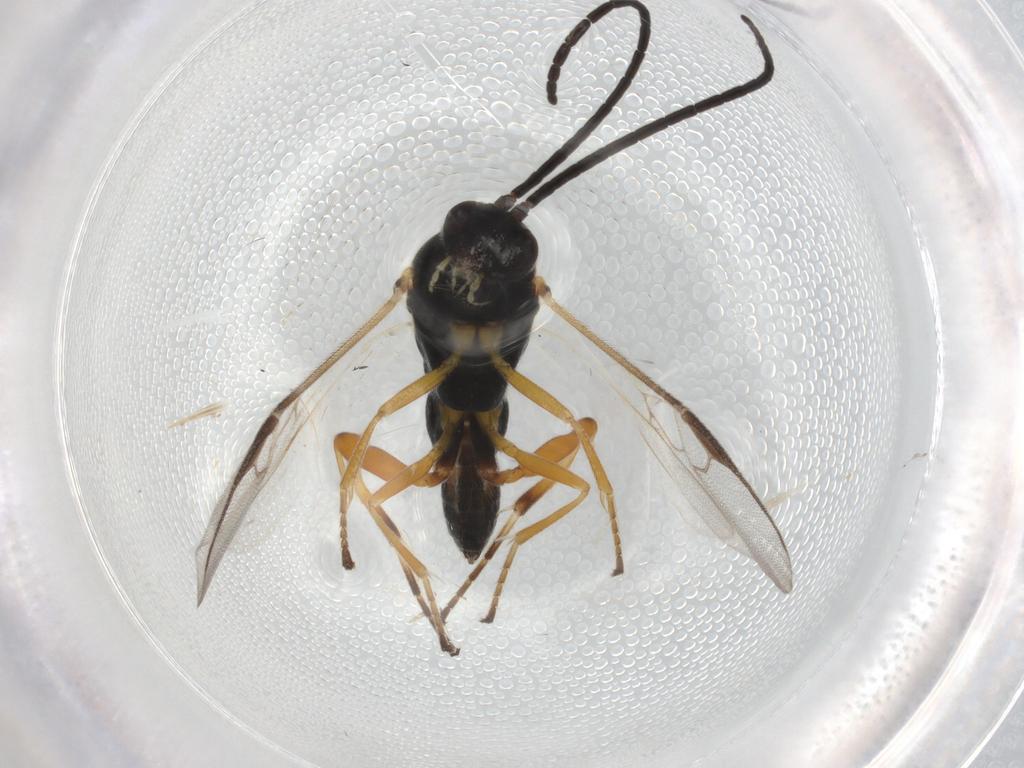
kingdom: Animalia
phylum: Arthropoda
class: Insecta
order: Hymenoptera
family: Braconidae
